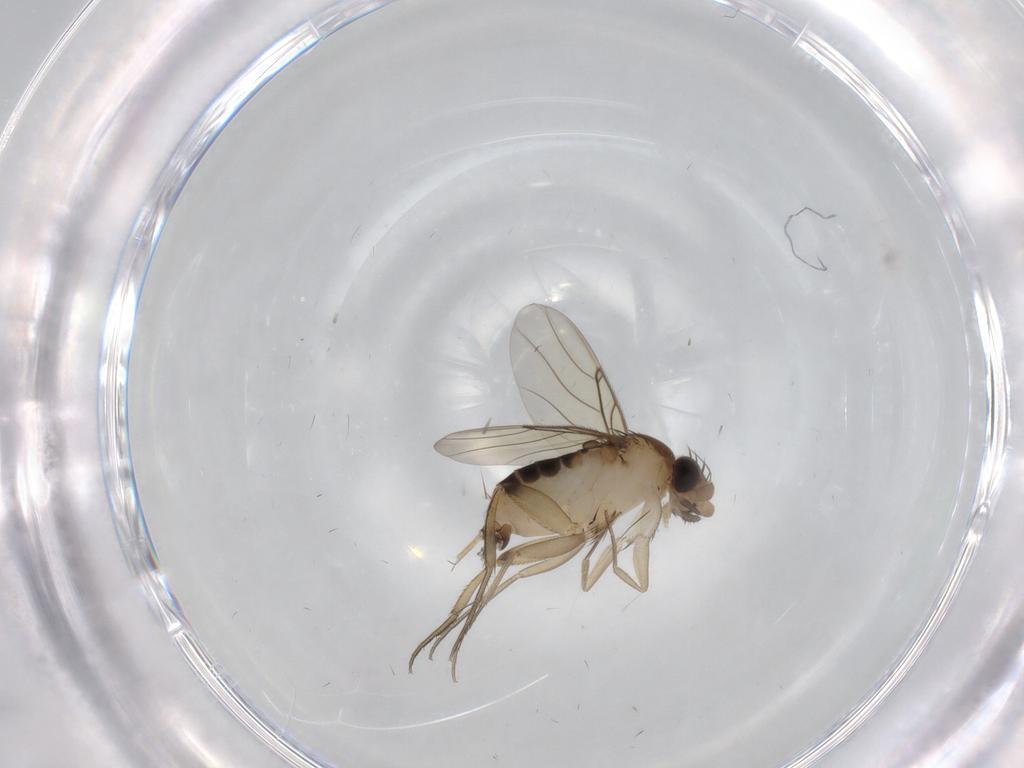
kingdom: Animalia
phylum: Arthropoda
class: Insecta
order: Diptera
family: Phoridae
